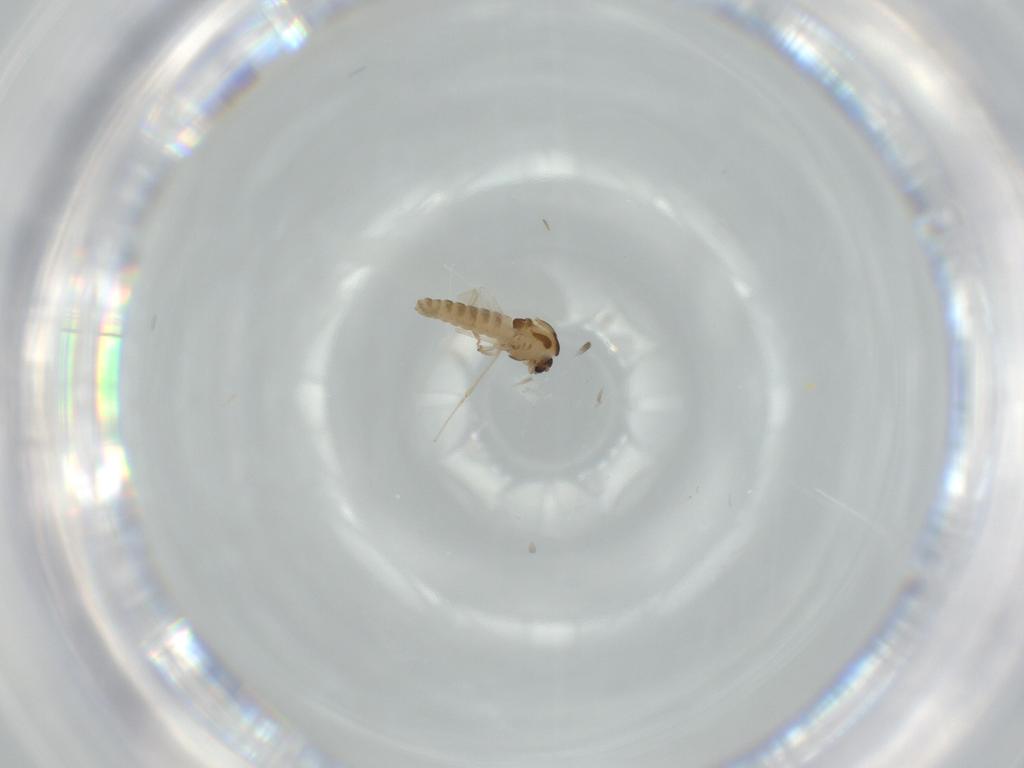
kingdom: Animalia
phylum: Arthropoda
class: Insecta
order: Diptera
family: Chironomidae
